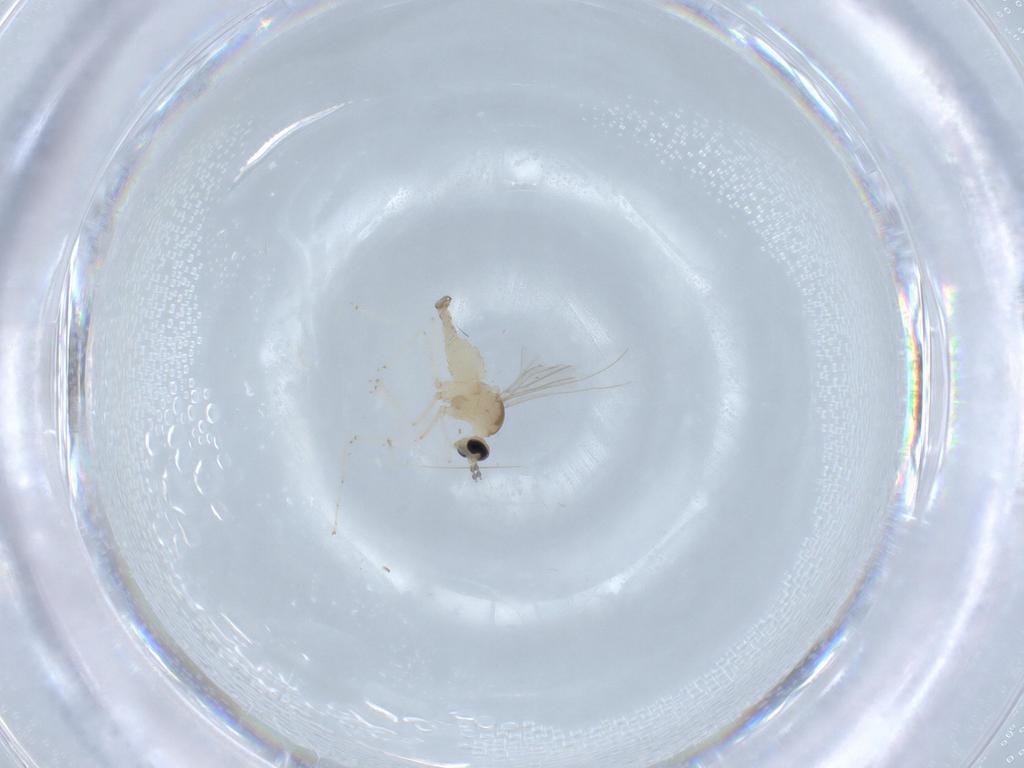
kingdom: Animalia
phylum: Arthropoda
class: Insecta
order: Diptera
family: Cecidomyiidae
